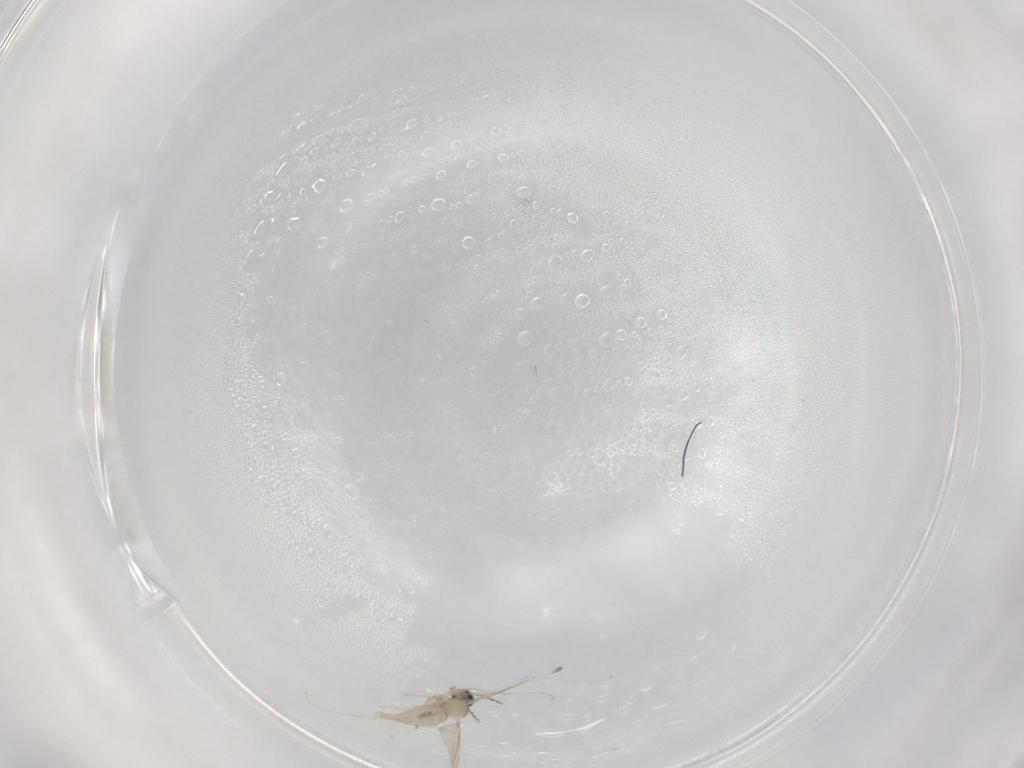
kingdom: Animalia
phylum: Arthropoda
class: Insecta
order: Diptera
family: Cecidomyiidae
